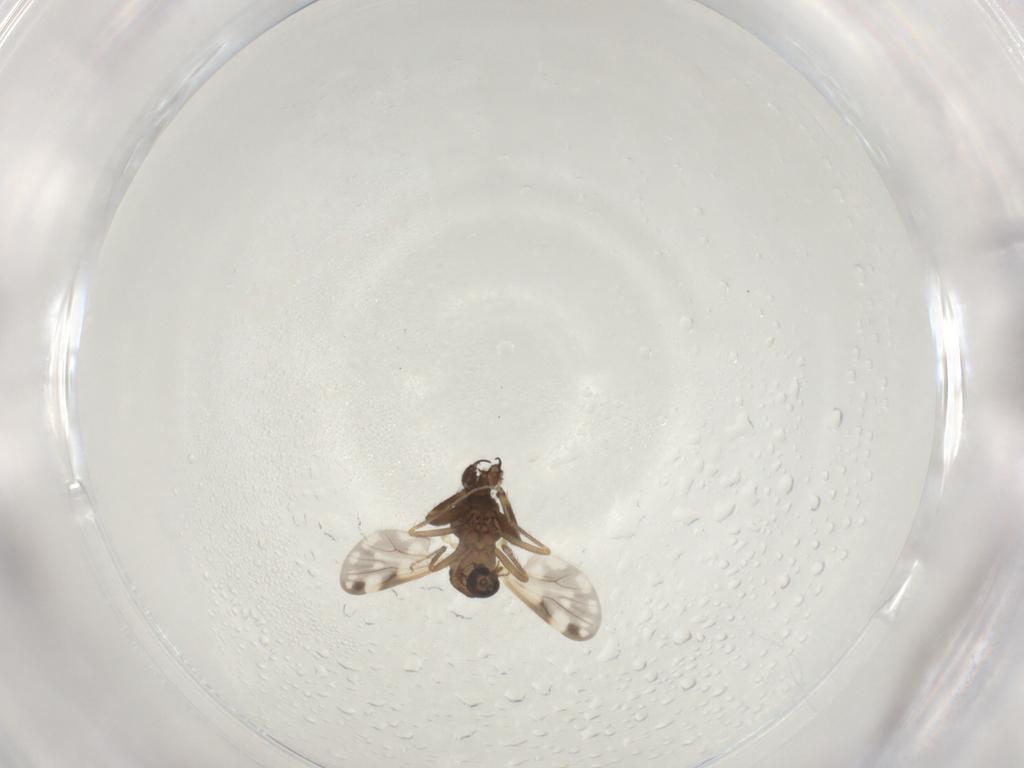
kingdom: Animalia
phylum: Arthropoda
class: Insecta
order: Diptera
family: Ceratopogonidae
